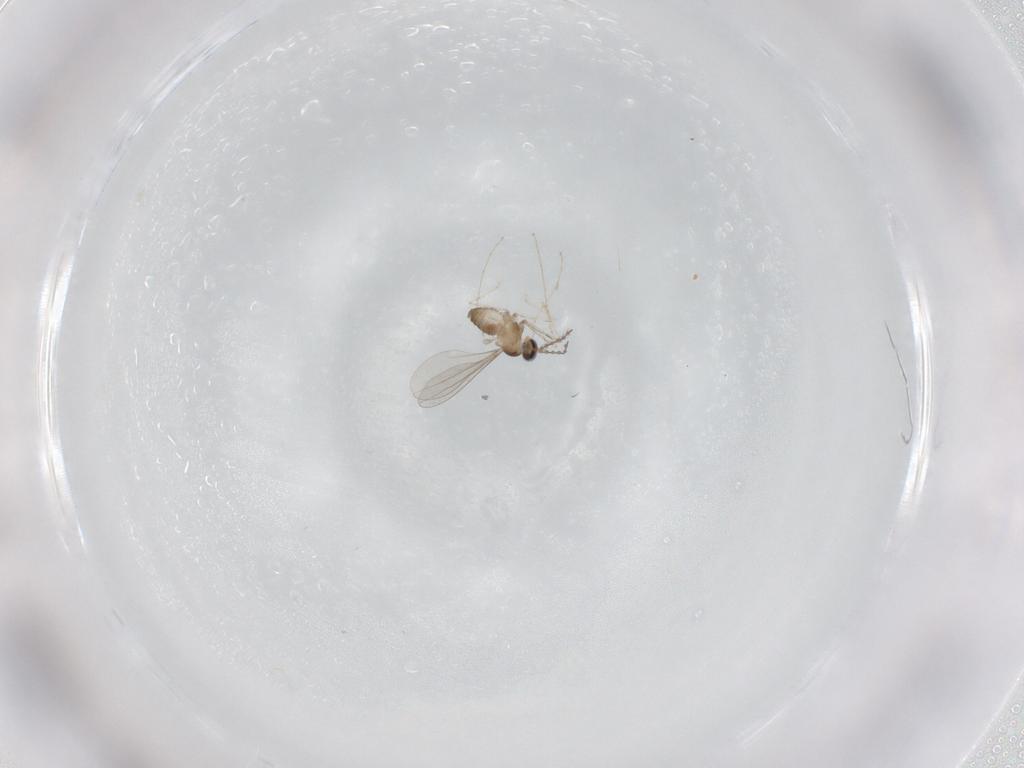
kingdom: Animalia
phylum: Arthropoda
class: Insecta
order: Diptera
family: Cecidomyiidae
